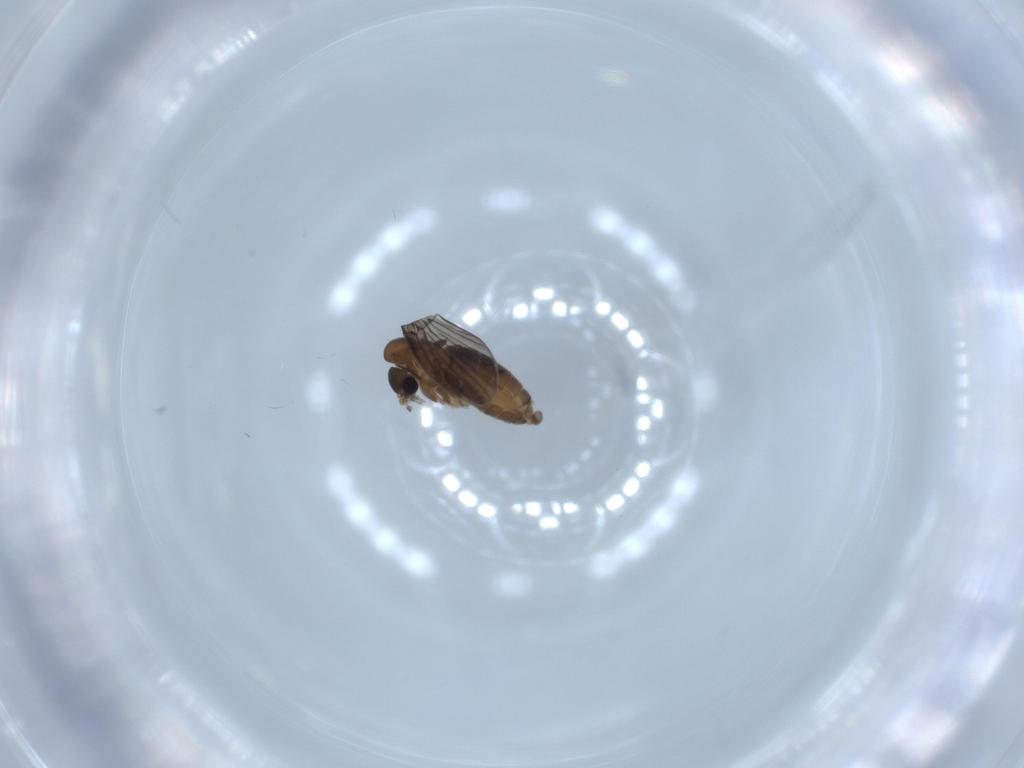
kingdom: Animalia
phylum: Arthropoda
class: Insecta
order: Diptera
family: Psychodidae
